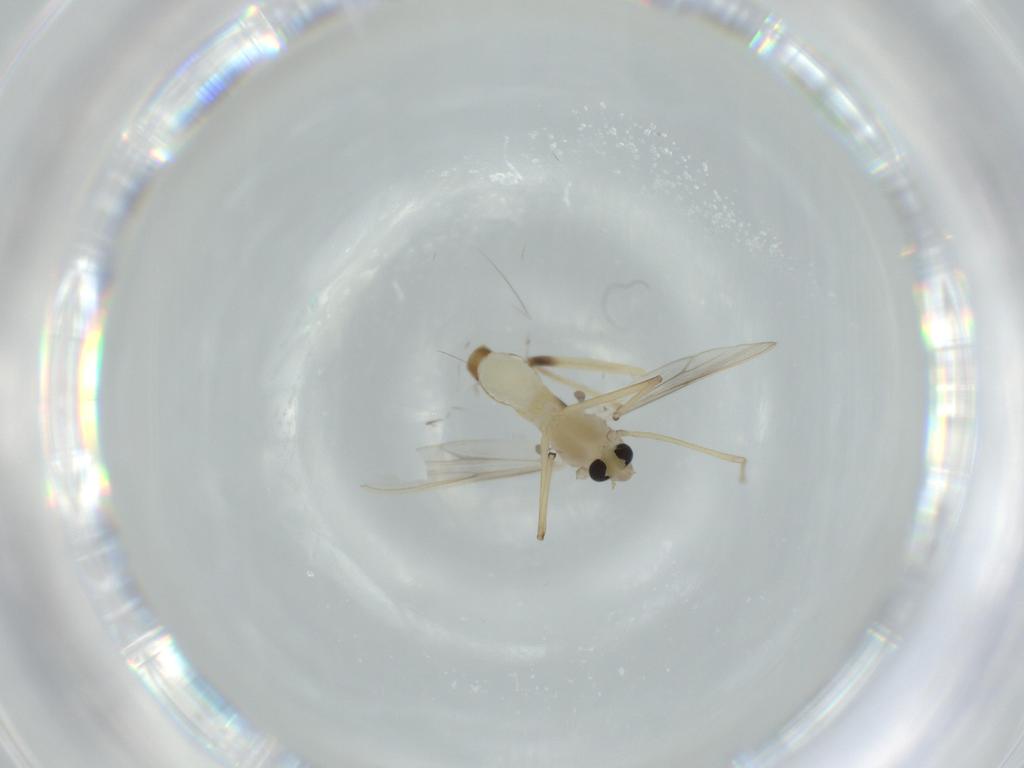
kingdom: Animalia
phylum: Arthropoda
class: Insecta
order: Diptera
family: Chironomidae
